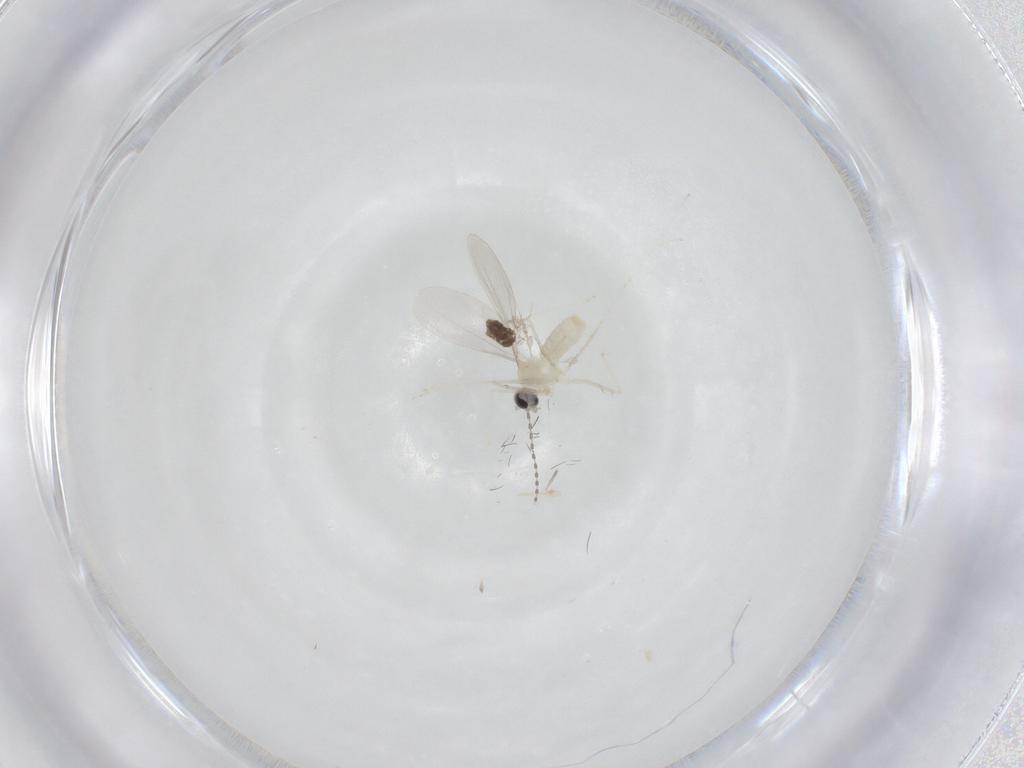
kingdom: Animalia
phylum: Arthropoda
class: Insecta
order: Diptera
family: Cecidomyiidae
